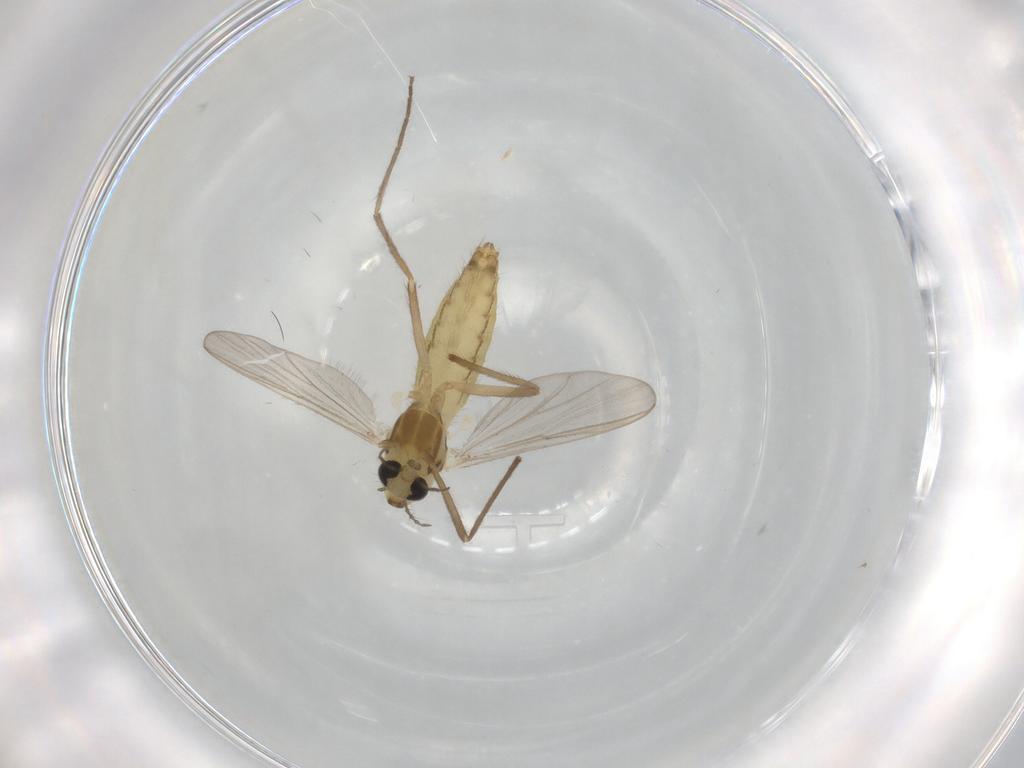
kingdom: Animalia
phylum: Arthropoda
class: Insecta
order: Diptera
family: Chironomidae
